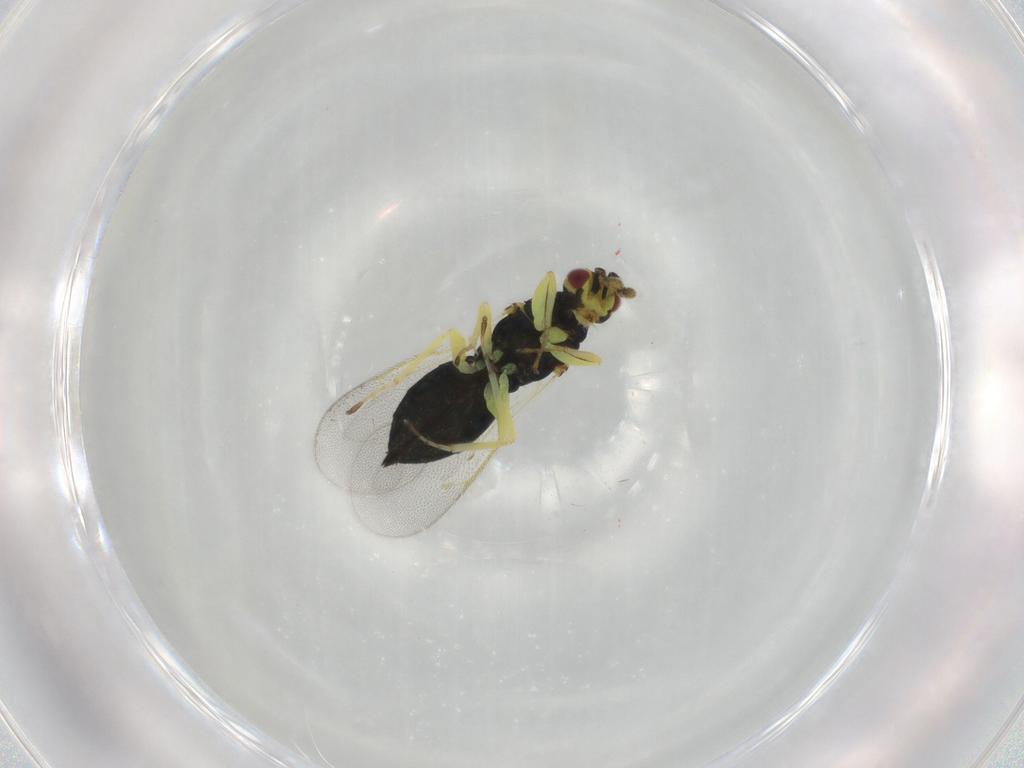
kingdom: Animalia
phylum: Arthropoda
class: Insecta
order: Hymenoptera
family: Eulophidae
